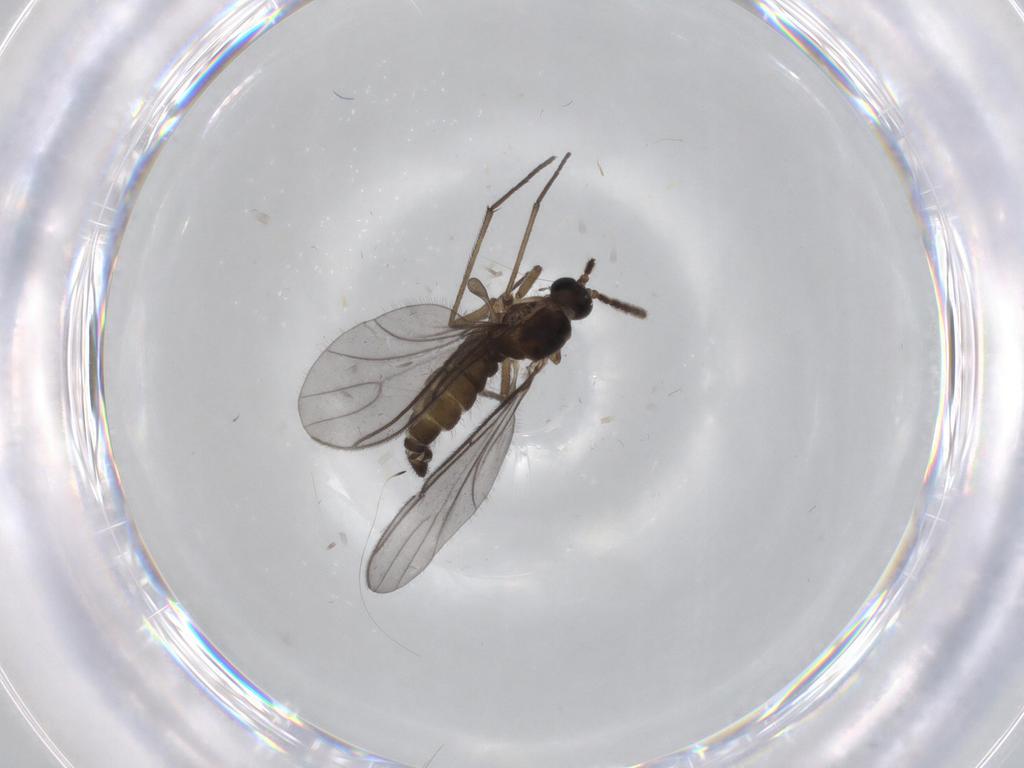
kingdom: Animalia
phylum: Arthropoda
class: Insecta
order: Diptera
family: Sciaridae
